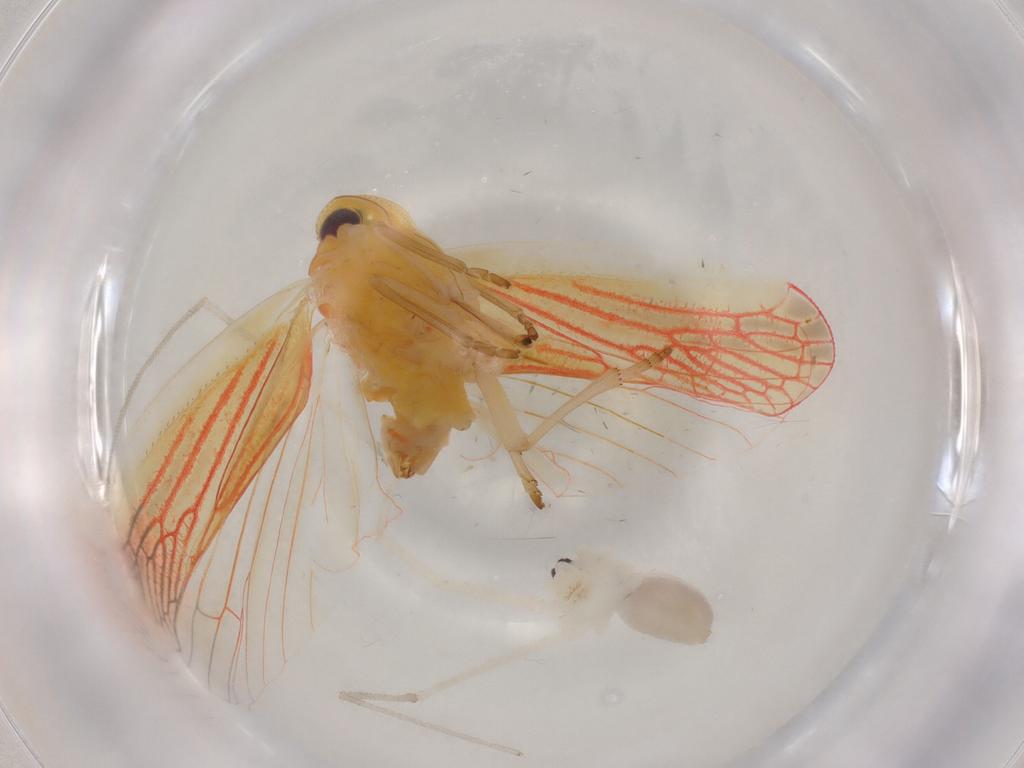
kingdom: Animalia
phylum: Arthropoda
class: Arachnida
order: Araneae
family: Pholcidae
